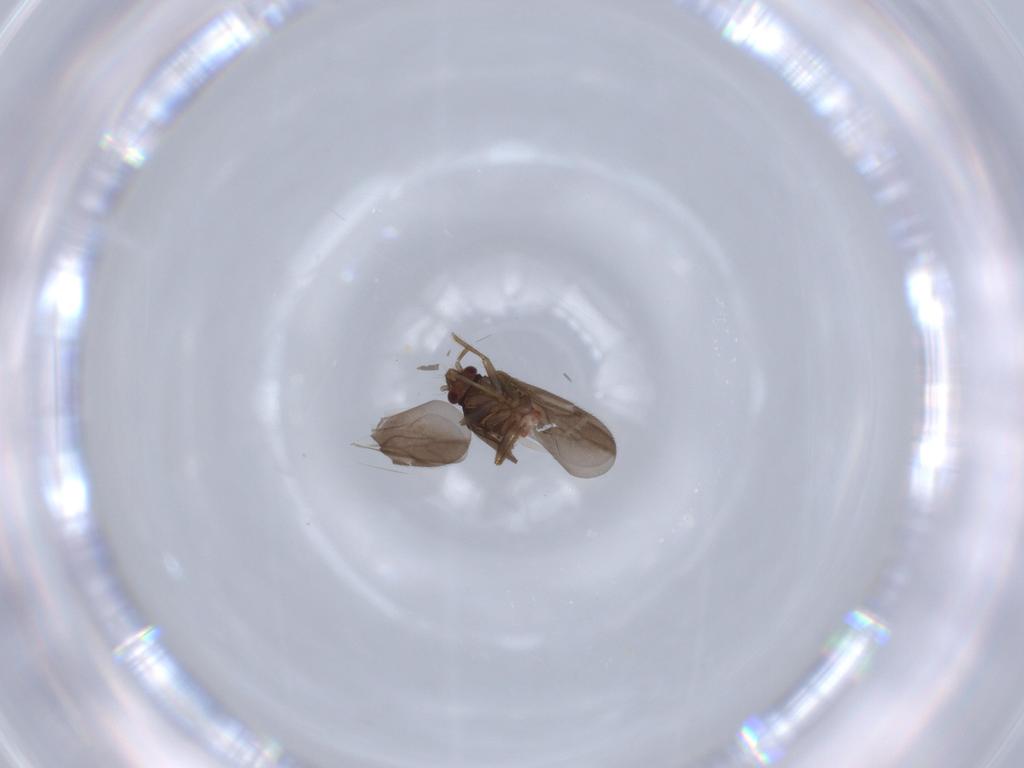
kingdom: Animalia
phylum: Arthropoda
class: Insecta
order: Hemiptera
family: Ceratocombidae
